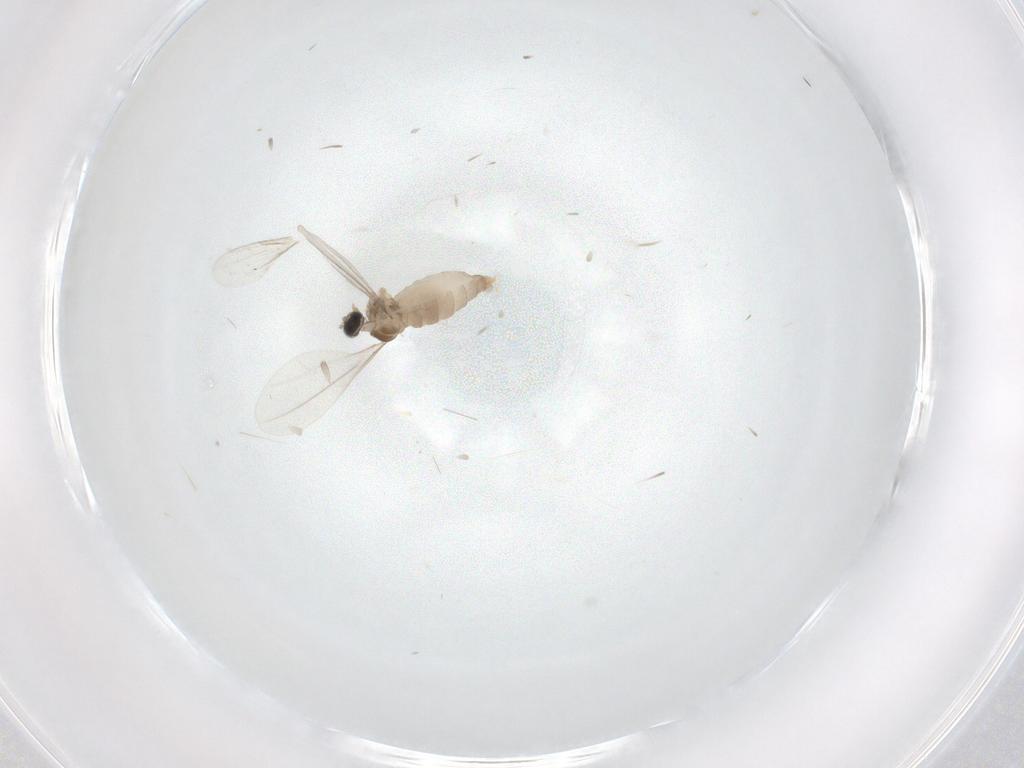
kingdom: Animalia
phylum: Arthropoda
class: Insecta
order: Diptera
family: Cecidomyiidae
